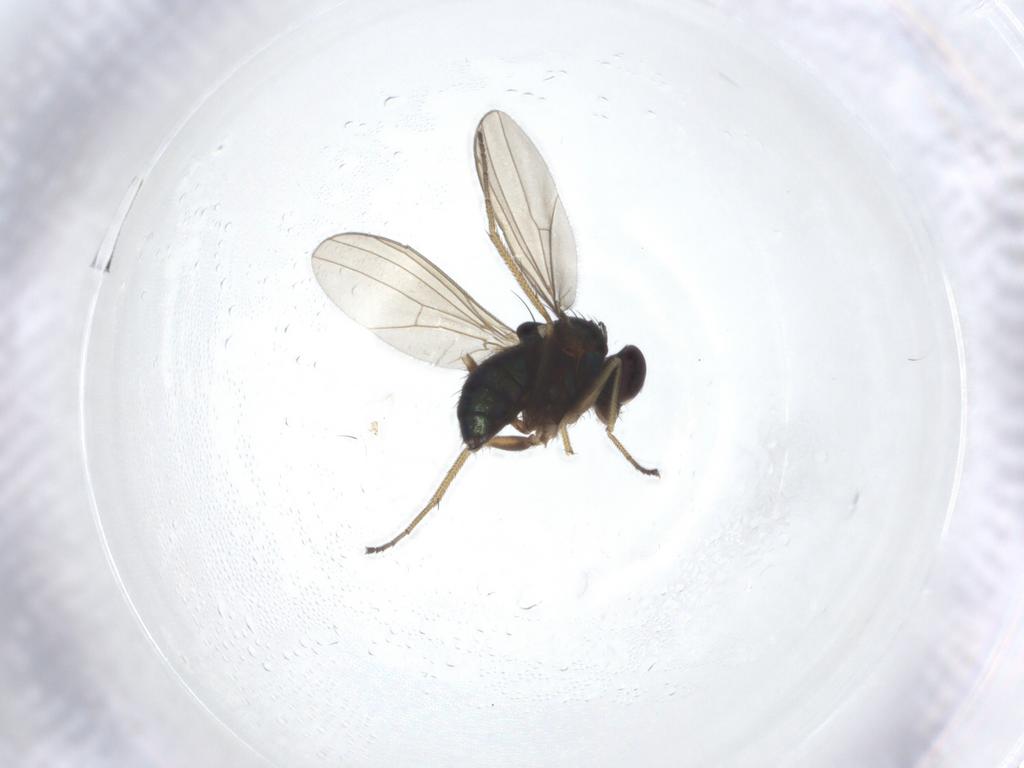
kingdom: Animalia
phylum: Arthropoda
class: Insecta
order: Diptera
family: Dolichopodidae
